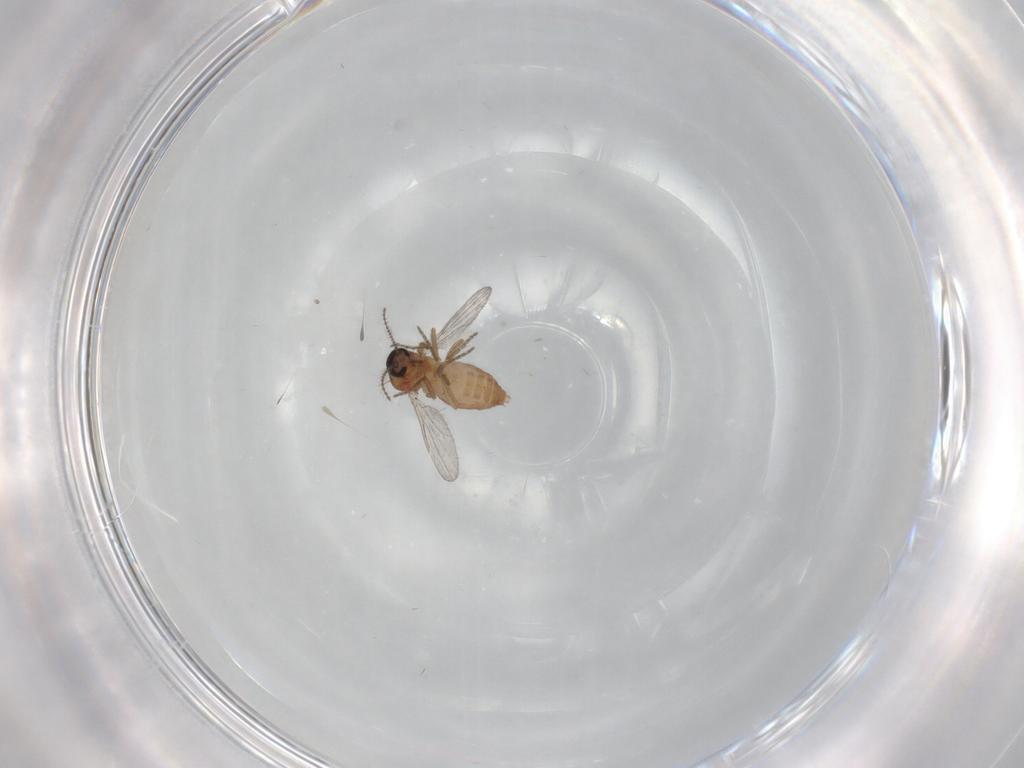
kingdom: Animalia
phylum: Arthropoda
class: Insecta
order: Diptera
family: Ceratopogonidae
